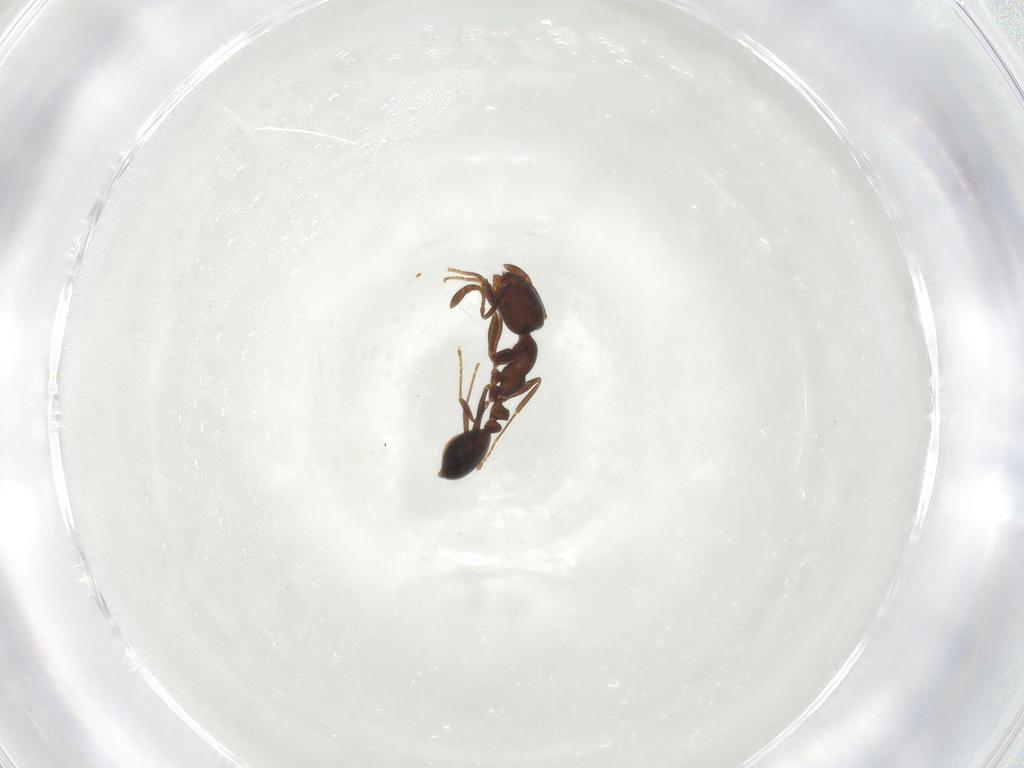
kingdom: Animalia
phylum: Arthropoda
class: Insecta
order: Hymenoptera
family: Formicidae
